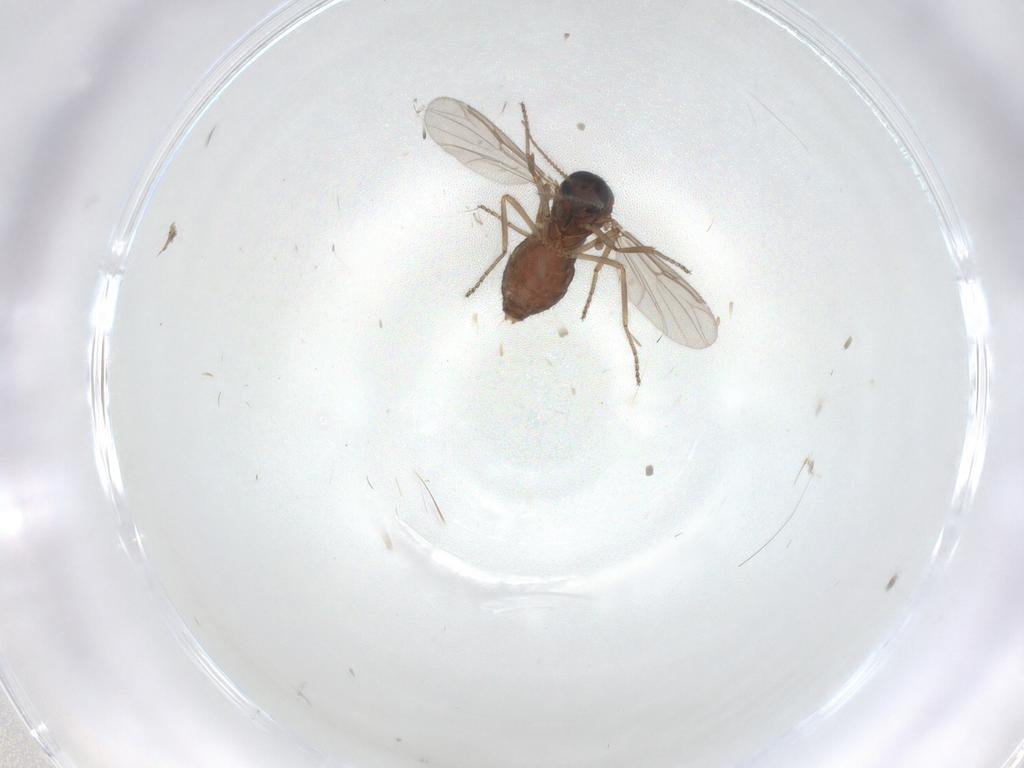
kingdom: Animalia
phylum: Arthropoda
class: Insecta
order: Diptera
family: Ceratopogonidae
